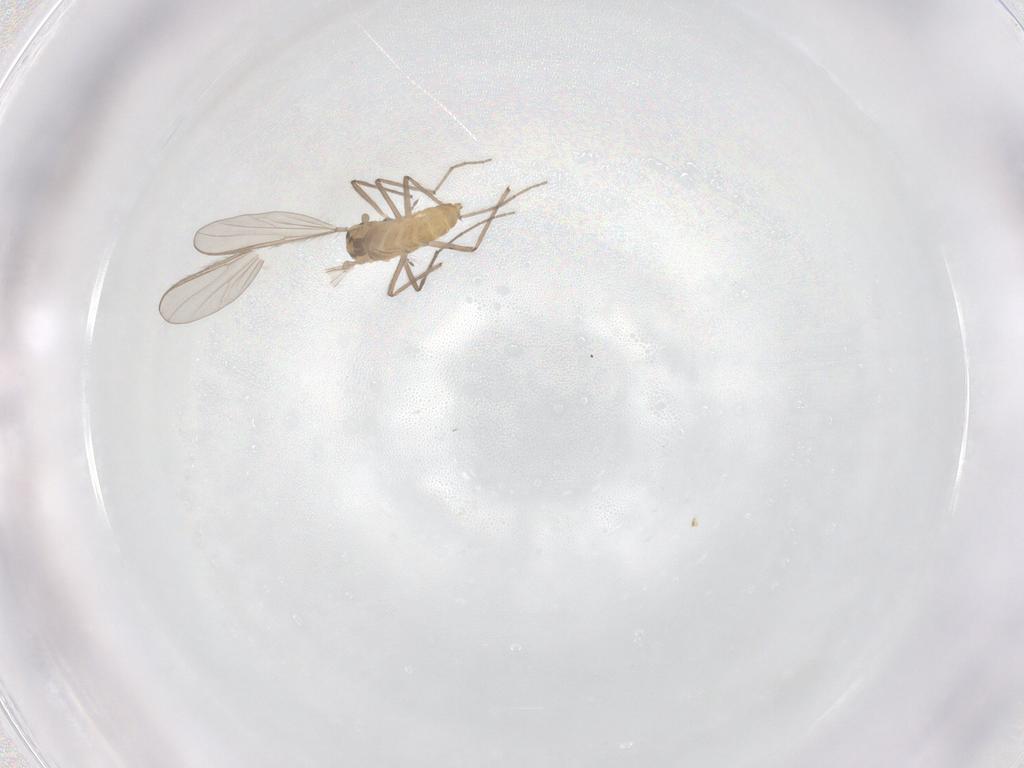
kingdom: Animalia
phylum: Arthropoda
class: Insecta
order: Diptera
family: Chironomidae
